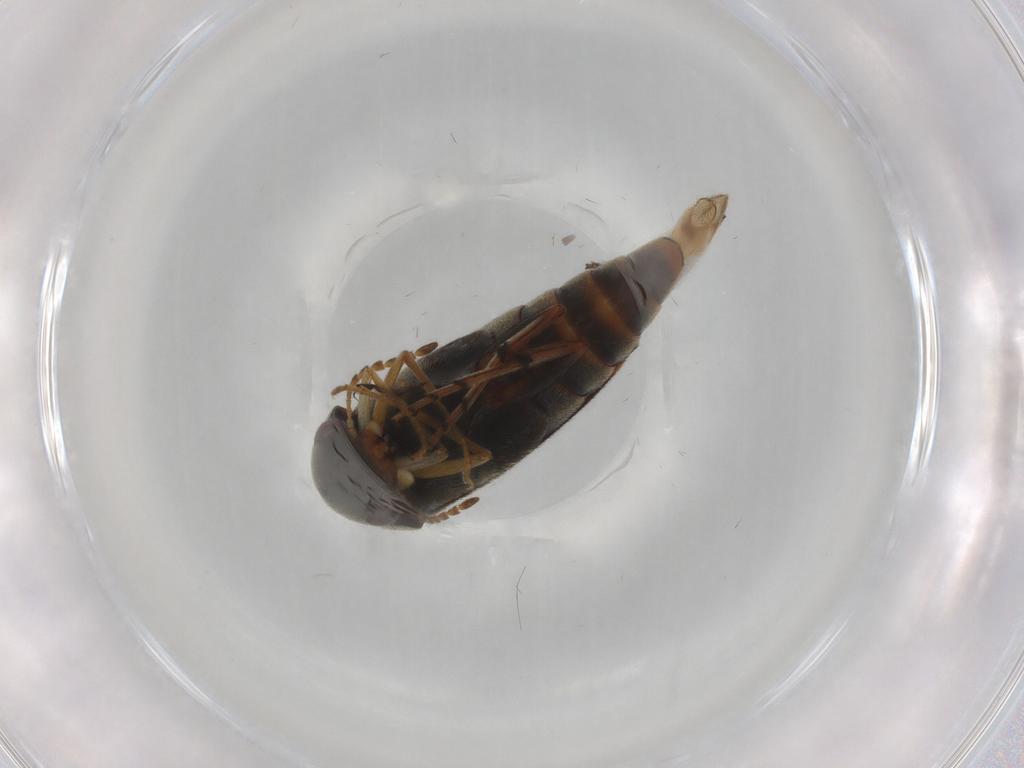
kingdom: Animalia
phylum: Arthropoda
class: Insecta
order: Coleoptera
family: Mordellidae
